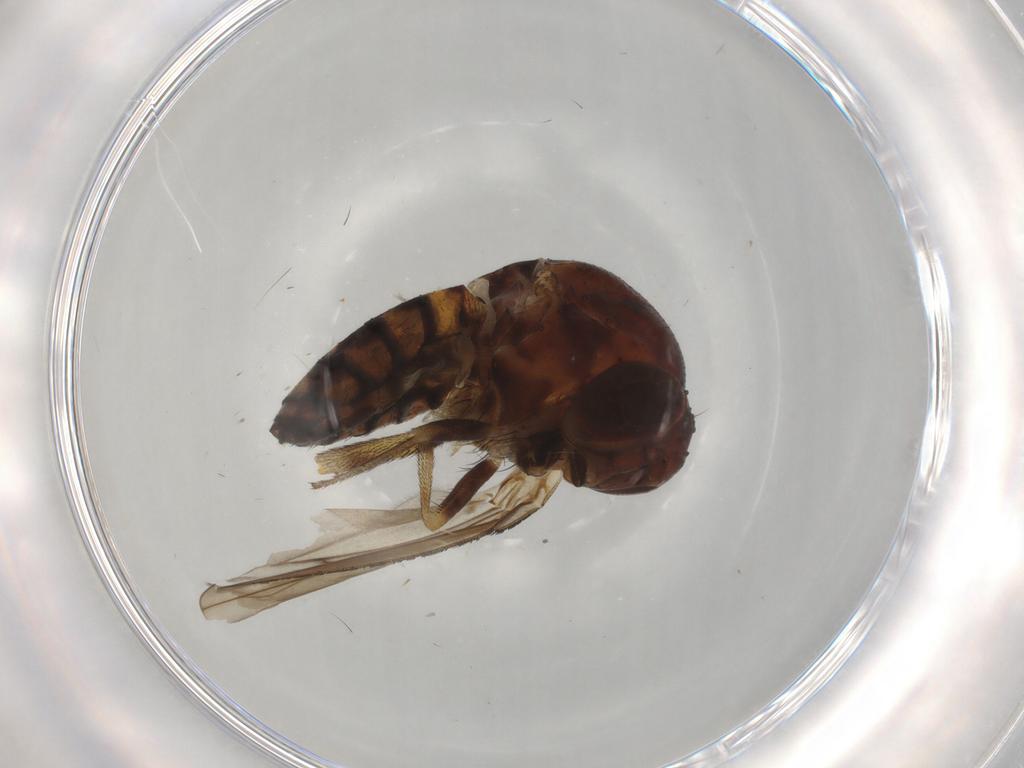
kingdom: Animalia
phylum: Arthropoda
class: Insecta
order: Diptera
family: Curtonotidae
